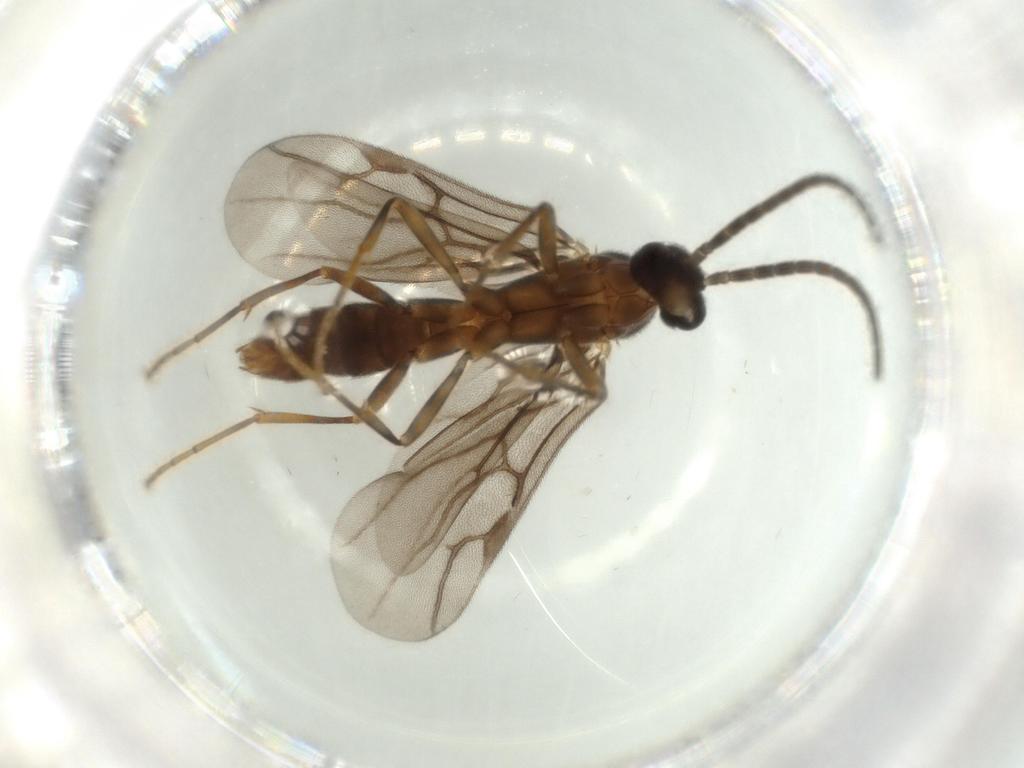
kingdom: Animalia
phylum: Arthropoda
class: Insecta
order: Hymenoptera
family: Formicidae
